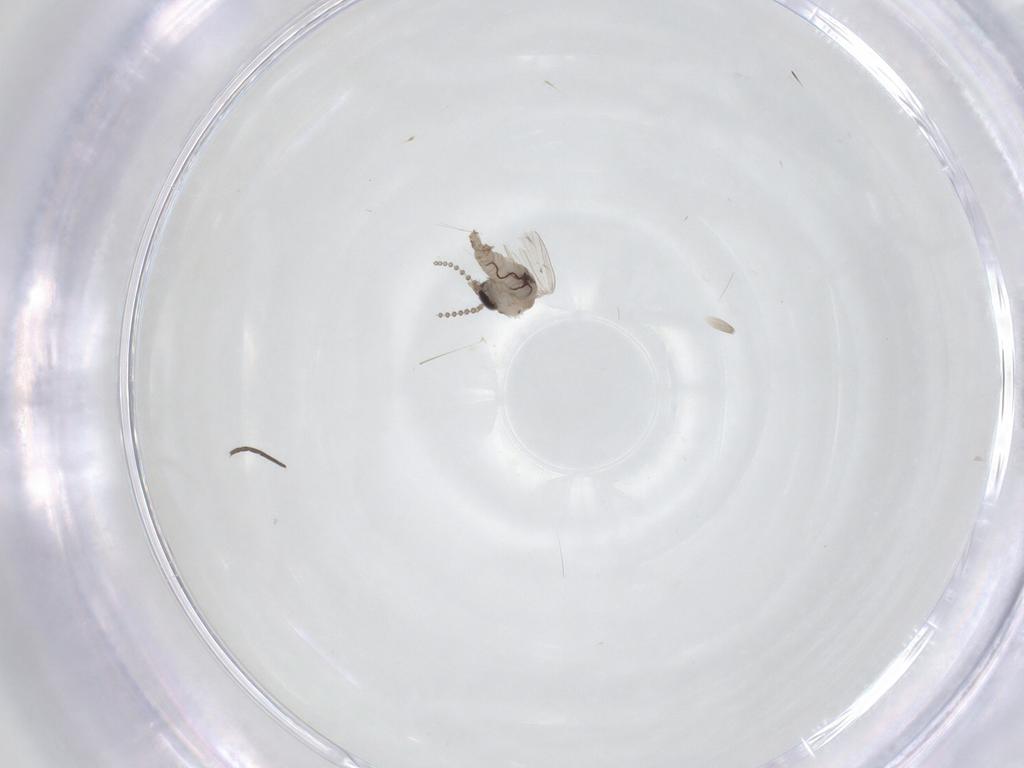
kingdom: Animalia
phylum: Arthropoda
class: Insecta
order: Diptera
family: Psychodidae
